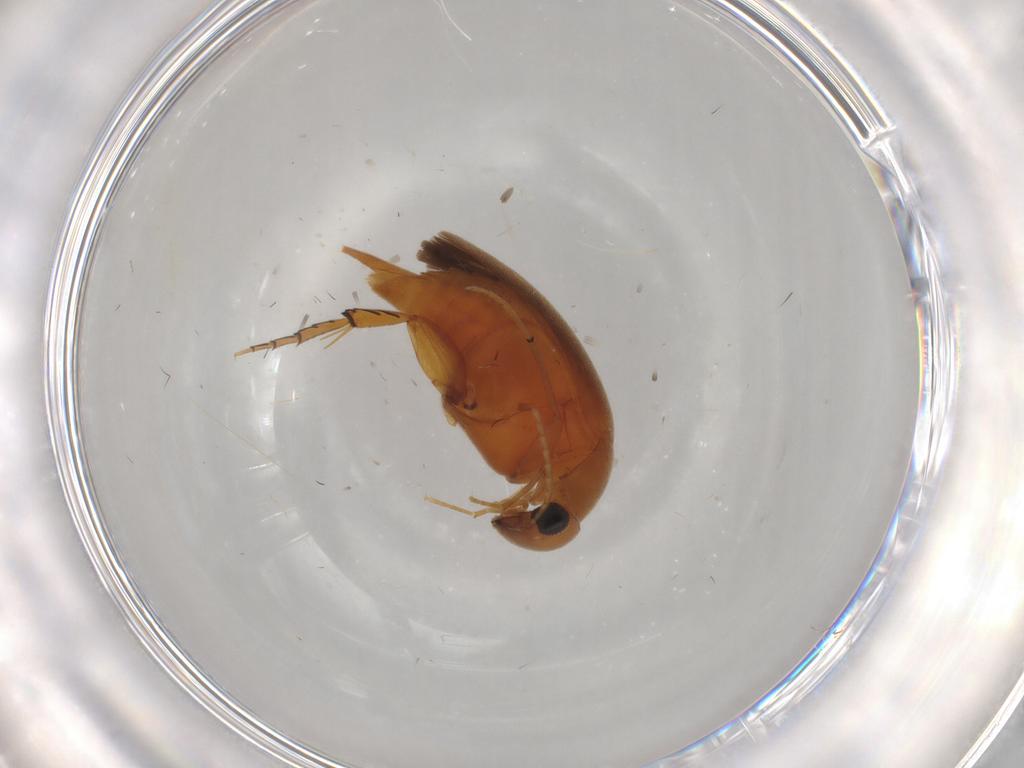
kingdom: Animalia
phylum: Arthropoda
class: Insecta
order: Coleoptera
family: Mordellidae
